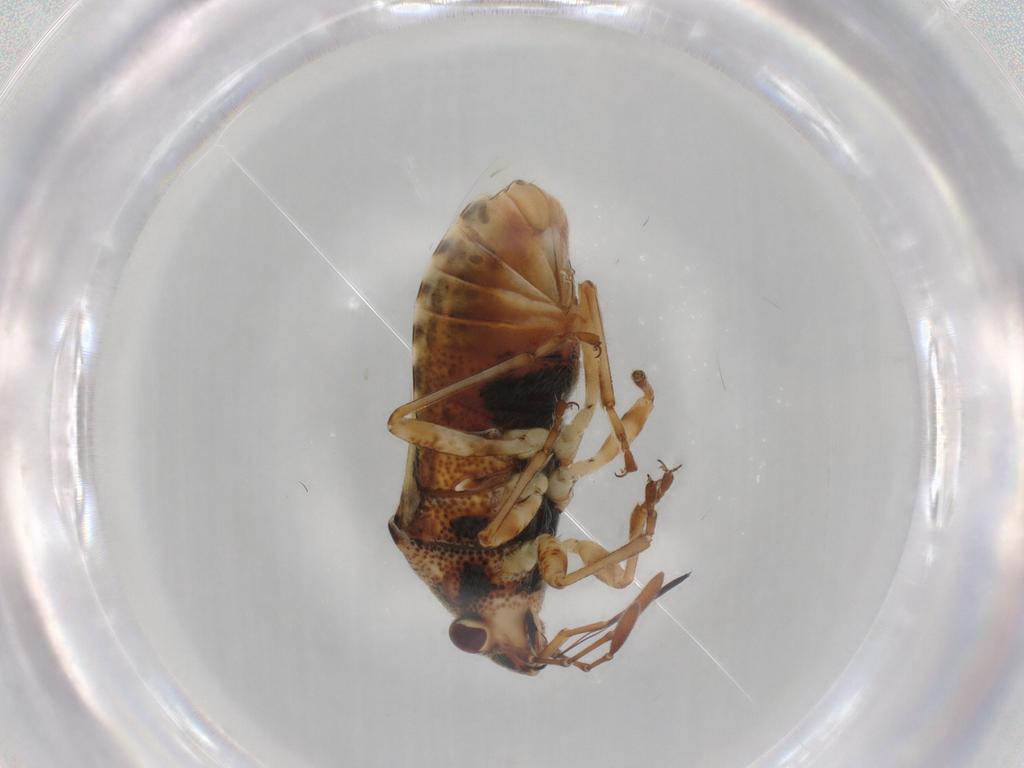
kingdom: Animalia
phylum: Arthropoda
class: Insecta
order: Hemiptera
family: Lygaeidae
